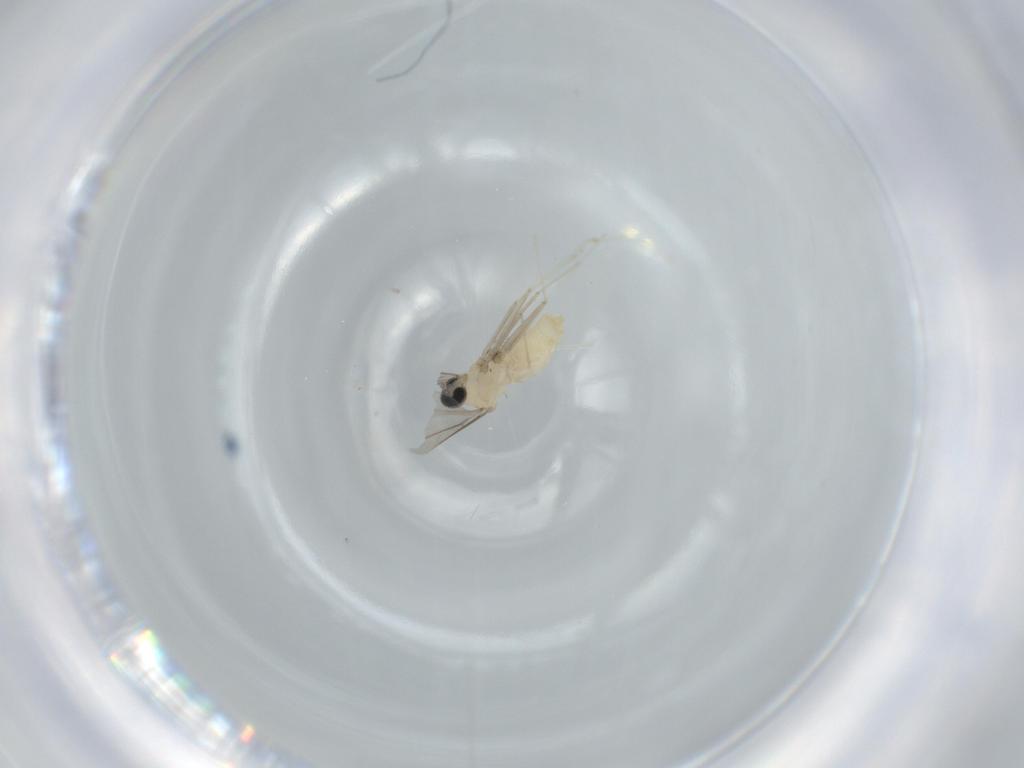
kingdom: Animalia
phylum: Arthropoda
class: Insecta
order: Diptera
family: Cecidomyiidae
